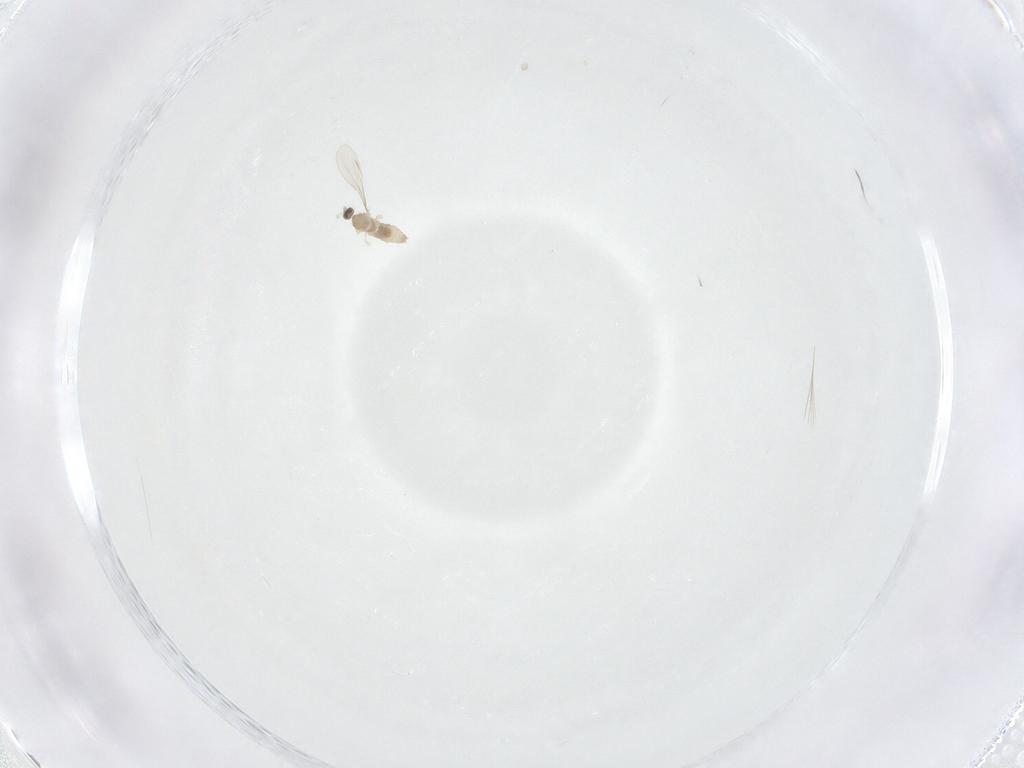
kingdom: Animalia
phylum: Arthropoda
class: Insecta
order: Diptera
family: Cecidomyiidae
